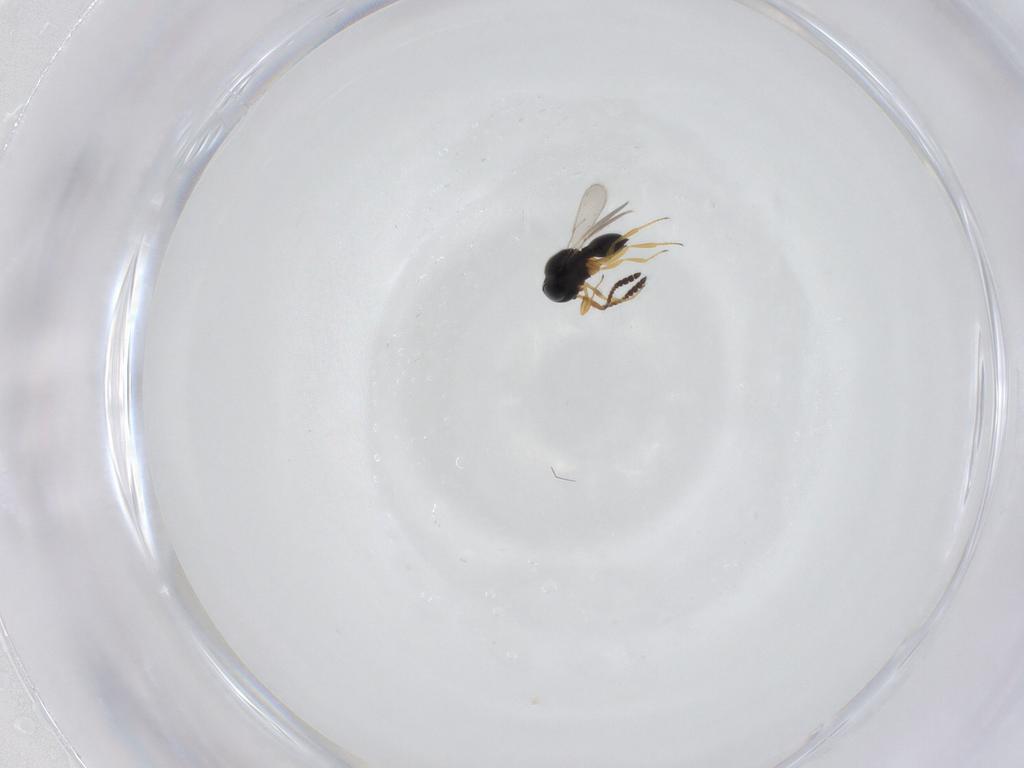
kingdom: Animalia
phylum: Arthropoda
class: Insecta
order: Hymenoptera
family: Scelionidae
